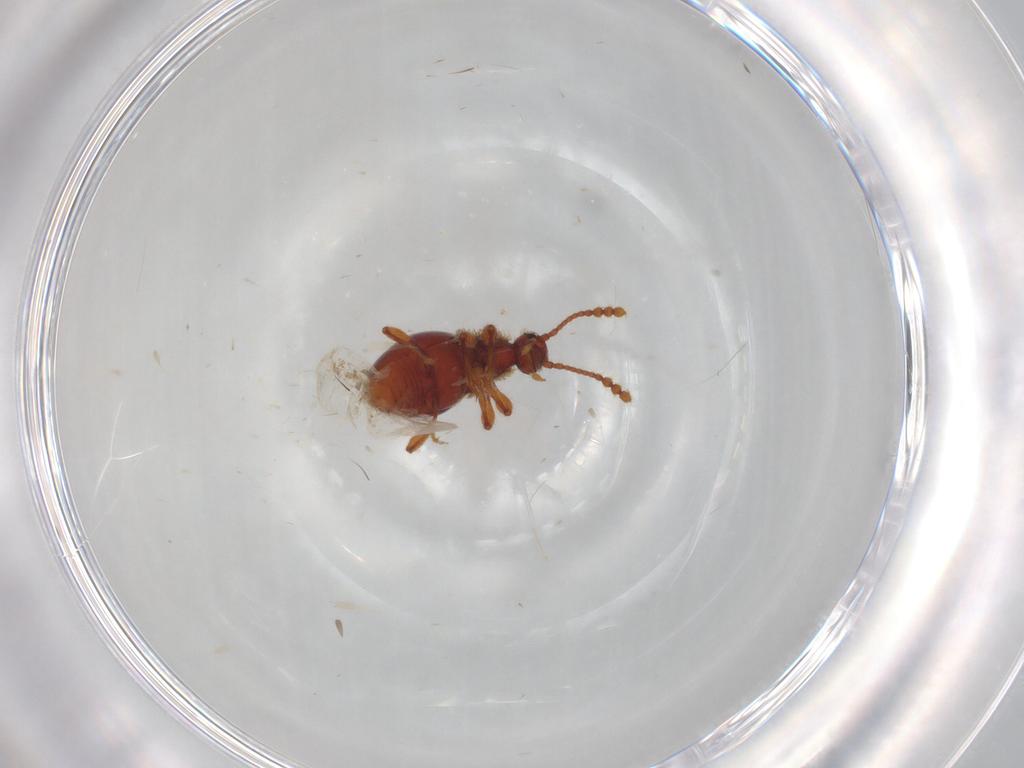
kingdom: Animalia
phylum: Arthropoda
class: Insecta
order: Coleoptera
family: Staphylinidae
